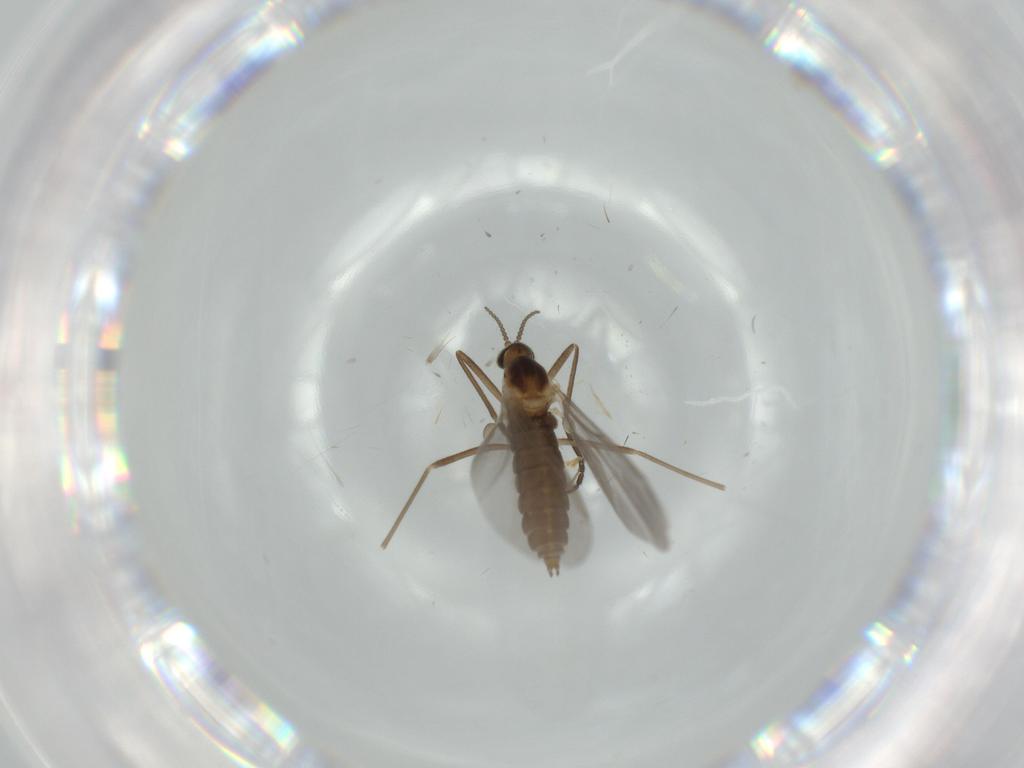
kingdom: Animalia
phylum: Arthropoda
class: Insecta
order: Diptera
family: Cecidomyiidae
